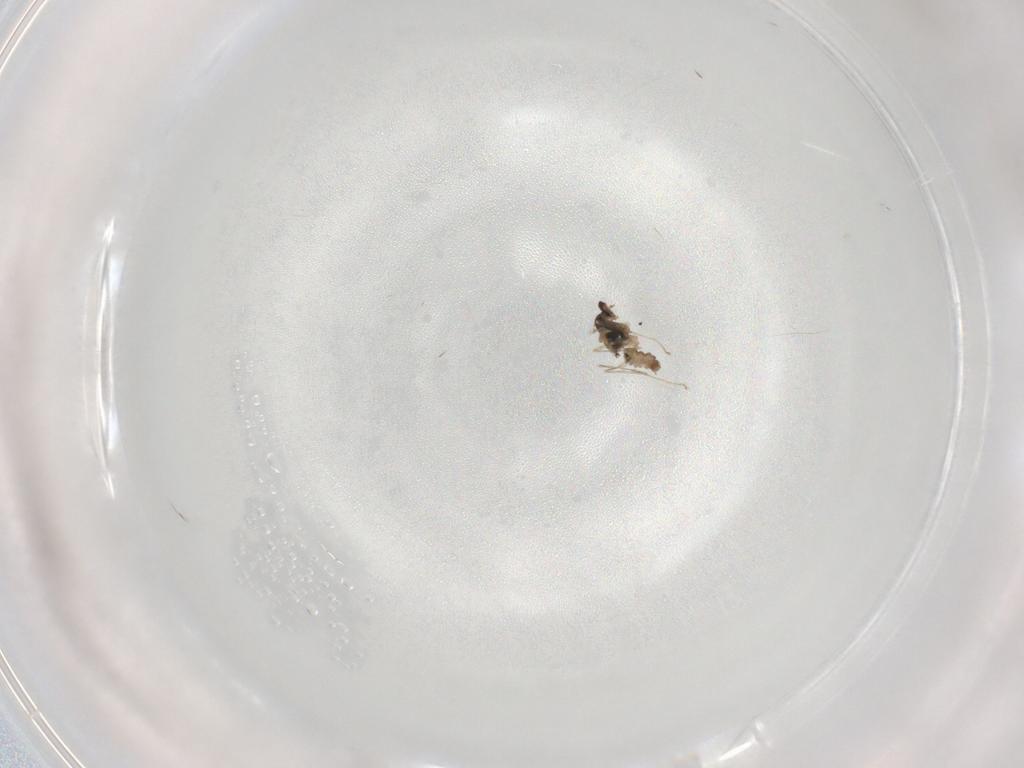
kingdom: Animalia
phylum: Arthropoda
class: Insecta
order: Diptera
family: Cecidomyiidae
